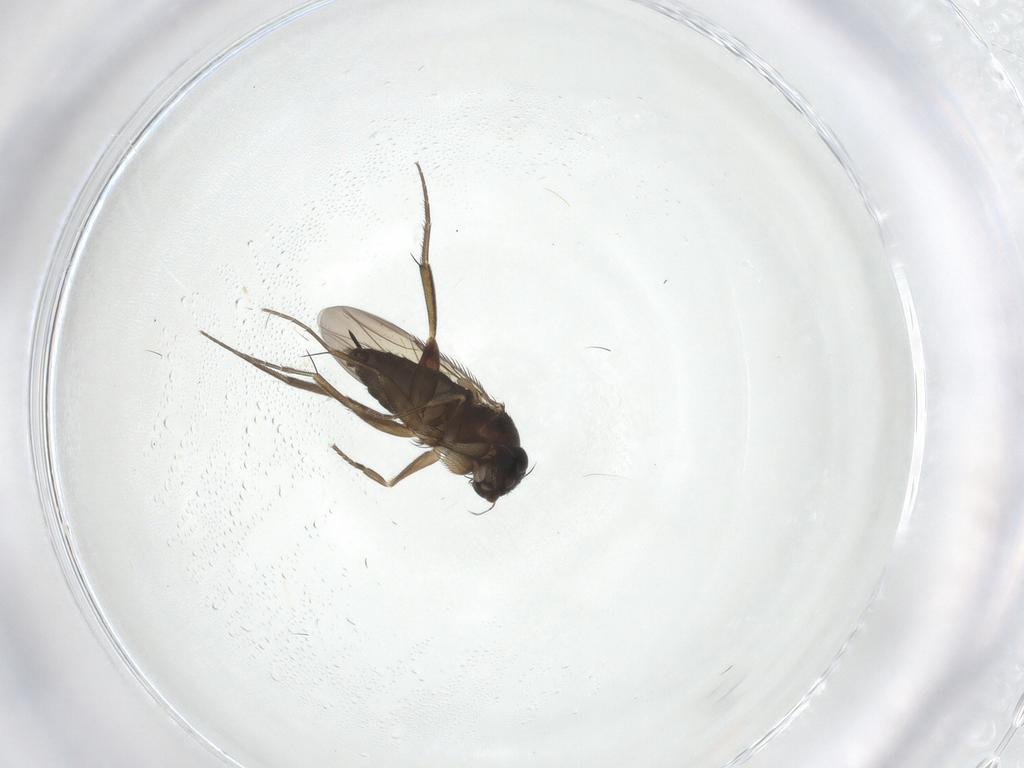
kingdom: Animalia
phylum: Arthropoda
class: Insecta
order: Diptera
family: Phoridae
